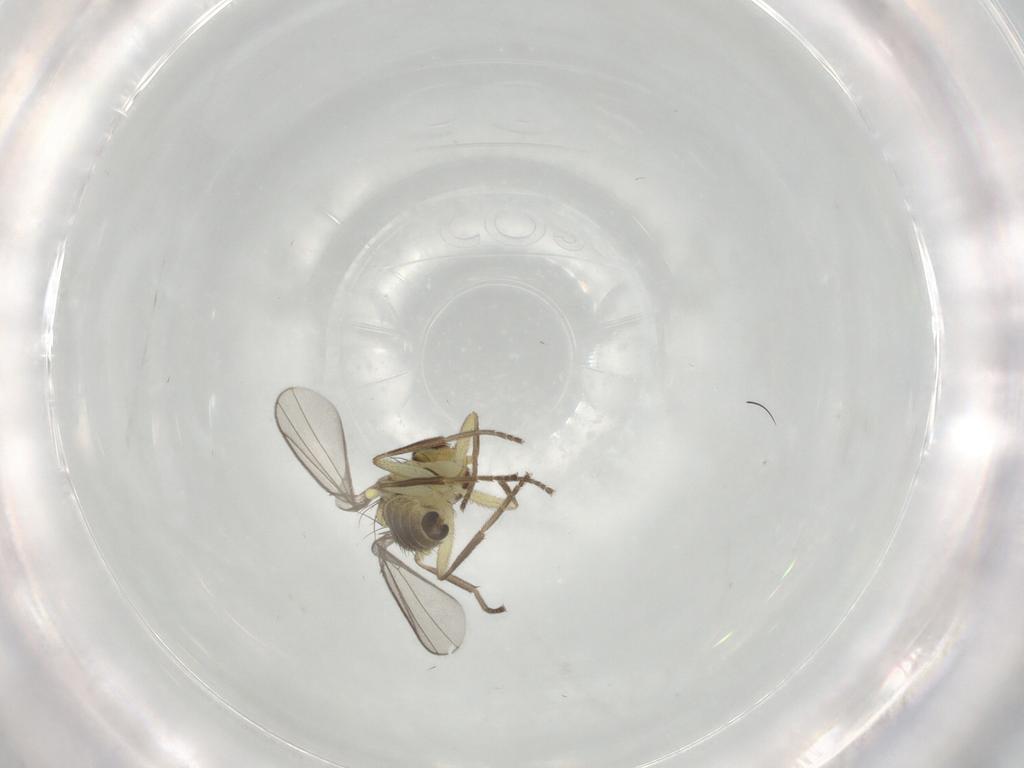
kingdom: Animalia
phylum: Arthropoda
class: Insecta
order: Diptera
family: Agromyzidae
